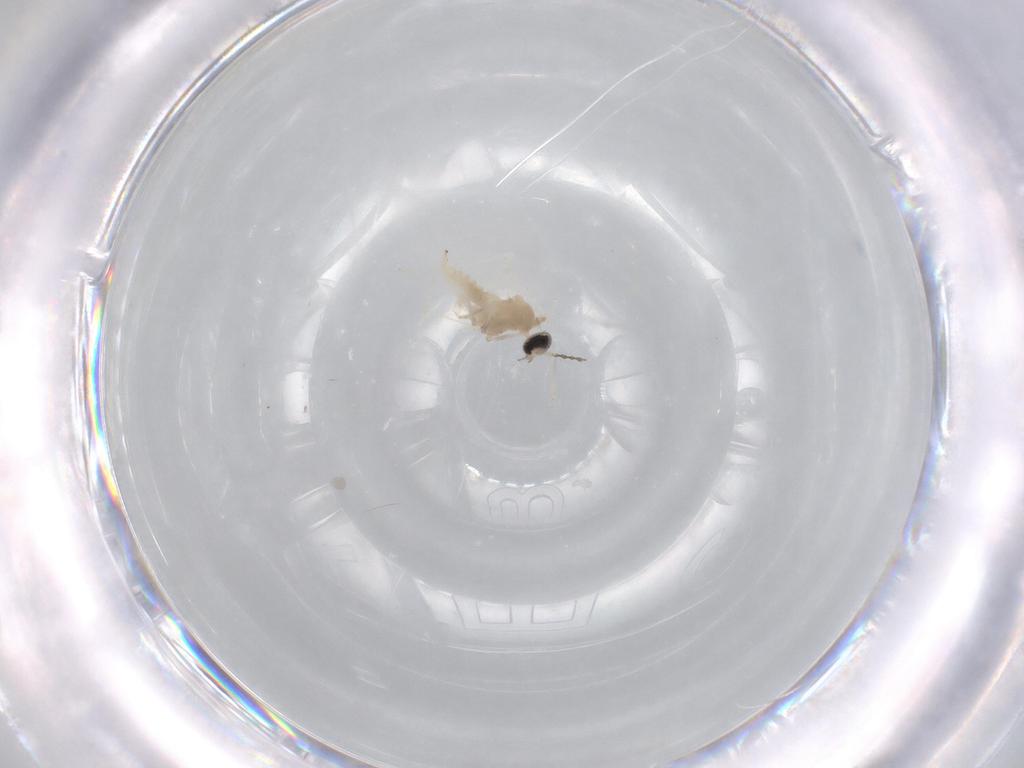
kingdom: Animalia
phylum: Arthropoda
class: Insecta
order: Diptera
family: Cecidomyiidae
